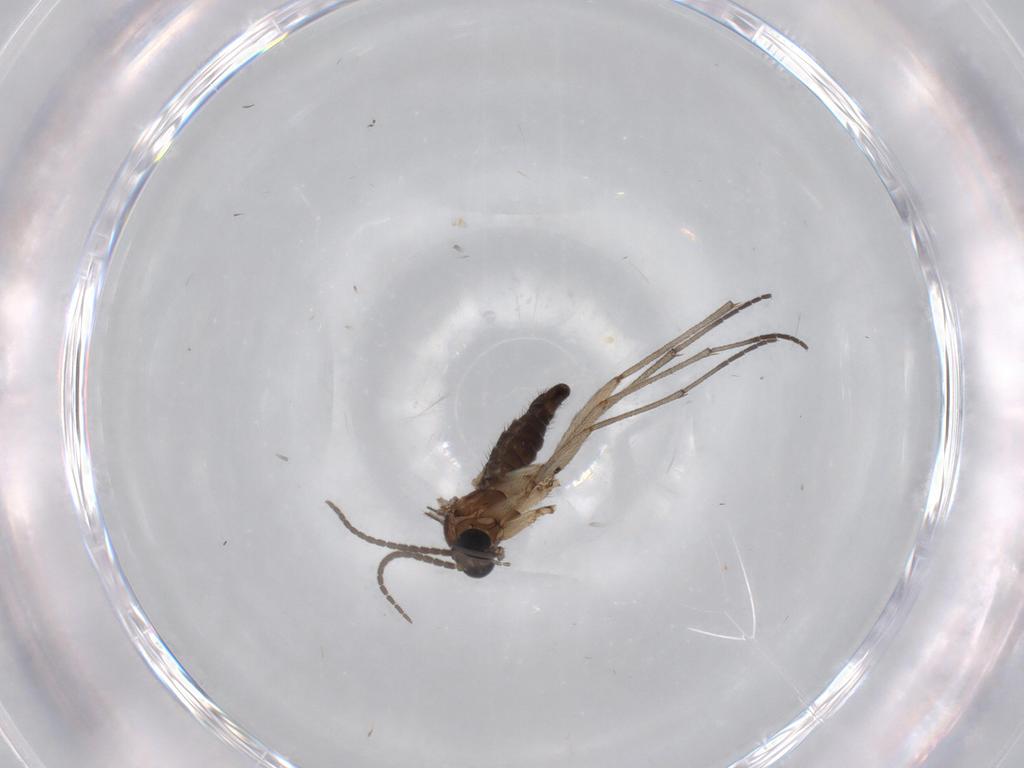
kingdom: Animalia
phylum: Arthropoda
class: Insecta
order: Diptera
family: Sciaridae
